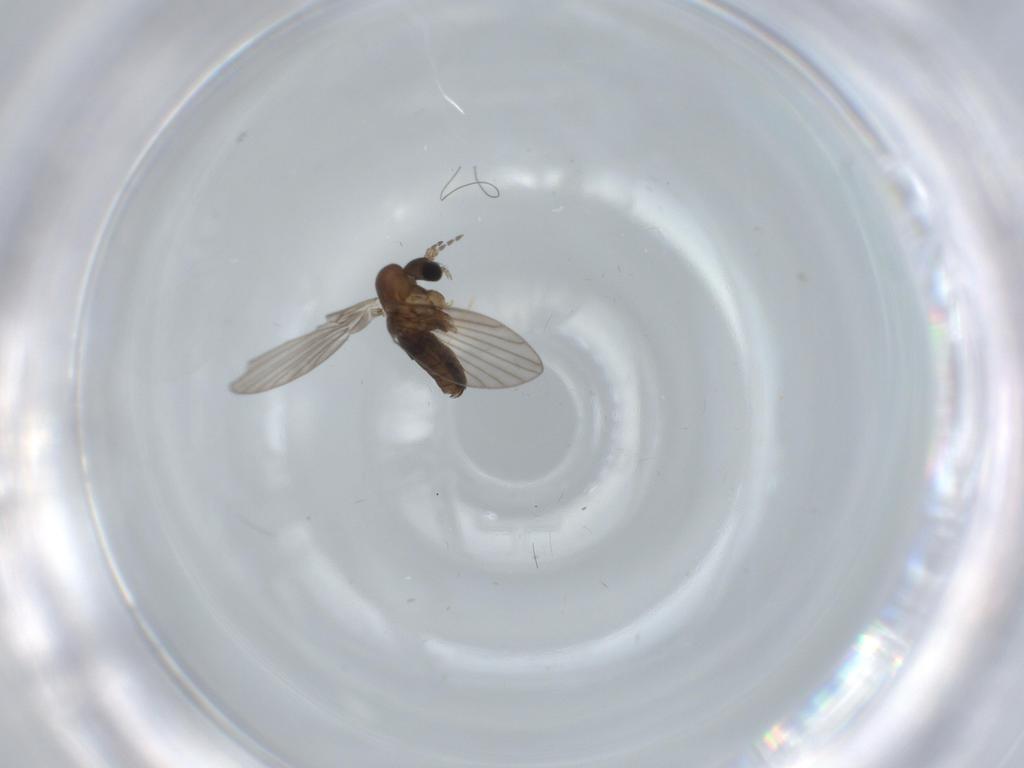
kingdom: Animalia
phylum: Arthropoda
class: Insecta
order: Diptera
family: Psychodidae
